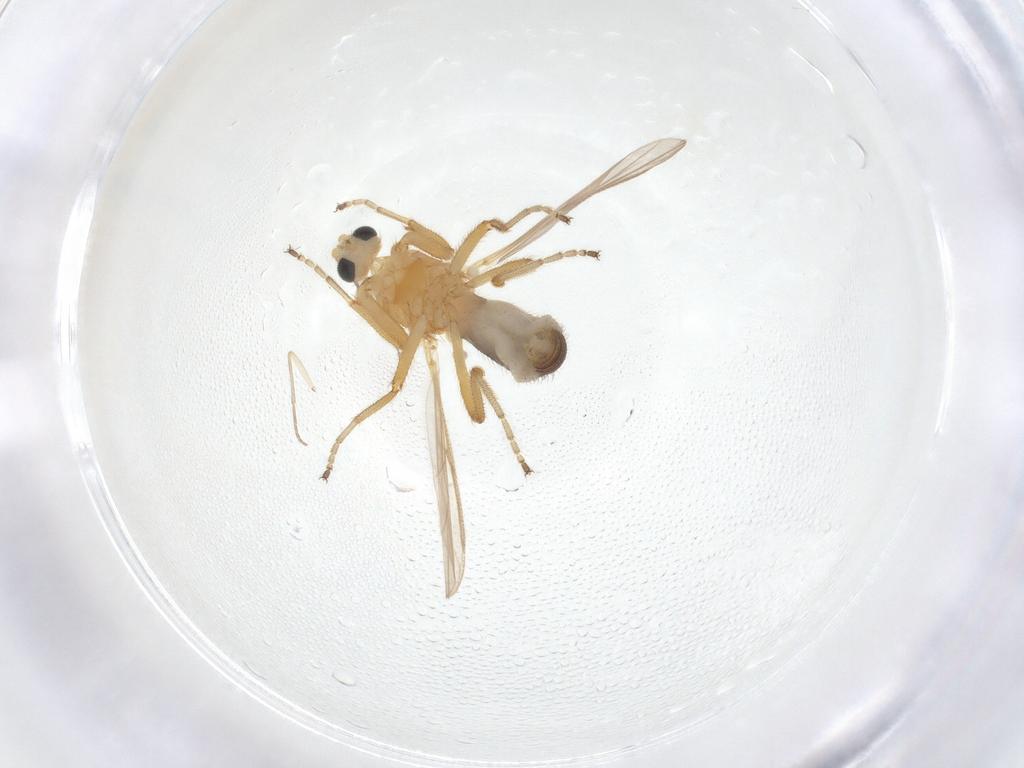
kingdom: Animalia
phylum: Arthropoda
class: Insecta
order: Diptera
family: Ceratopogonidae
